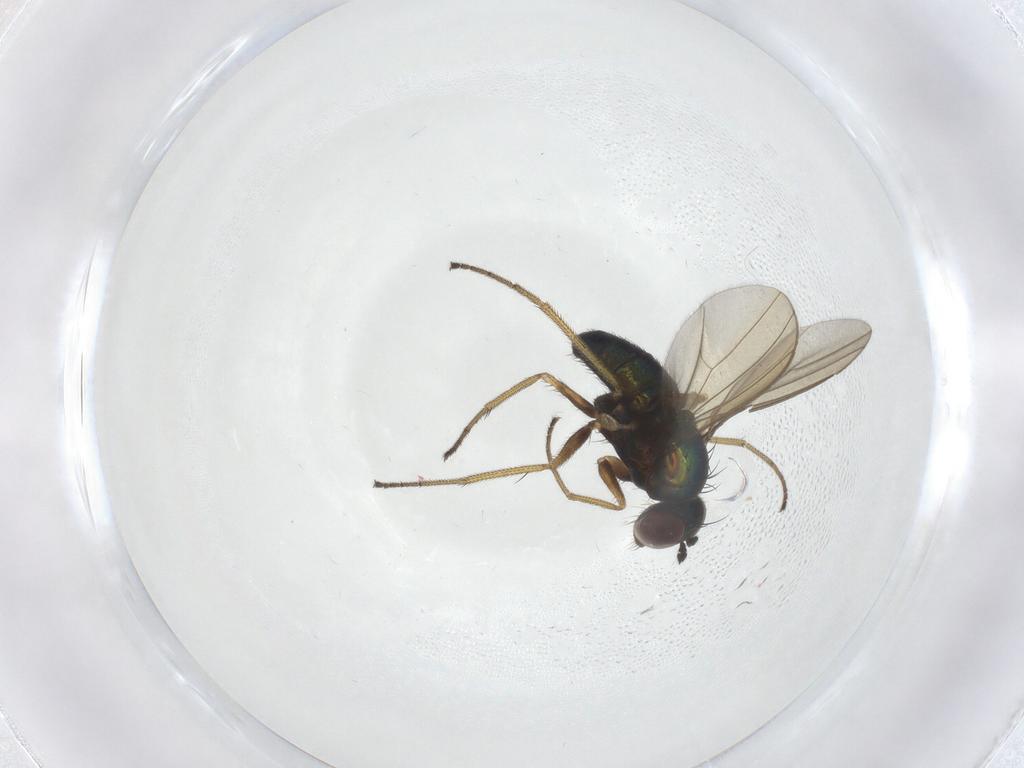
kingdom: Animalia
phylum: Arthropoda
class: Insecta
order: Diptera
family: Dolichopodidae
